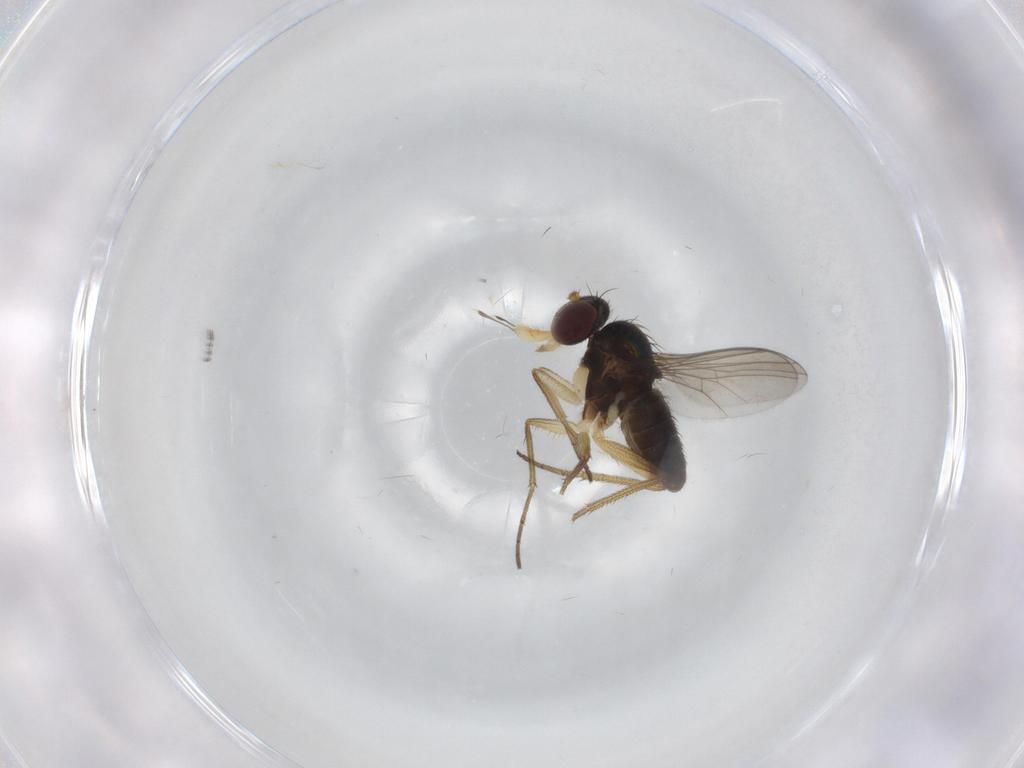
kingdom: Animalia
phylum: Arthropoda
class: Insecta
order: Diptera
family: Dolichopodidae
